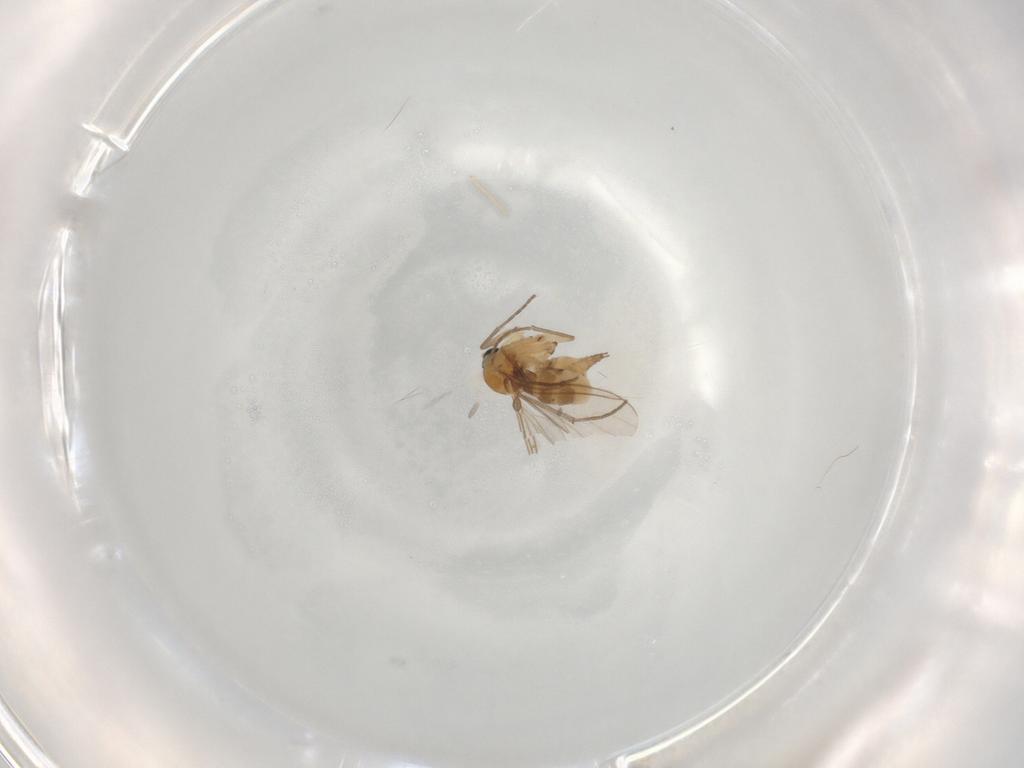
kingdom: Animalia
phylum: Arthropoda
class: Insecta
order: Diptera
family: Sciaridae
